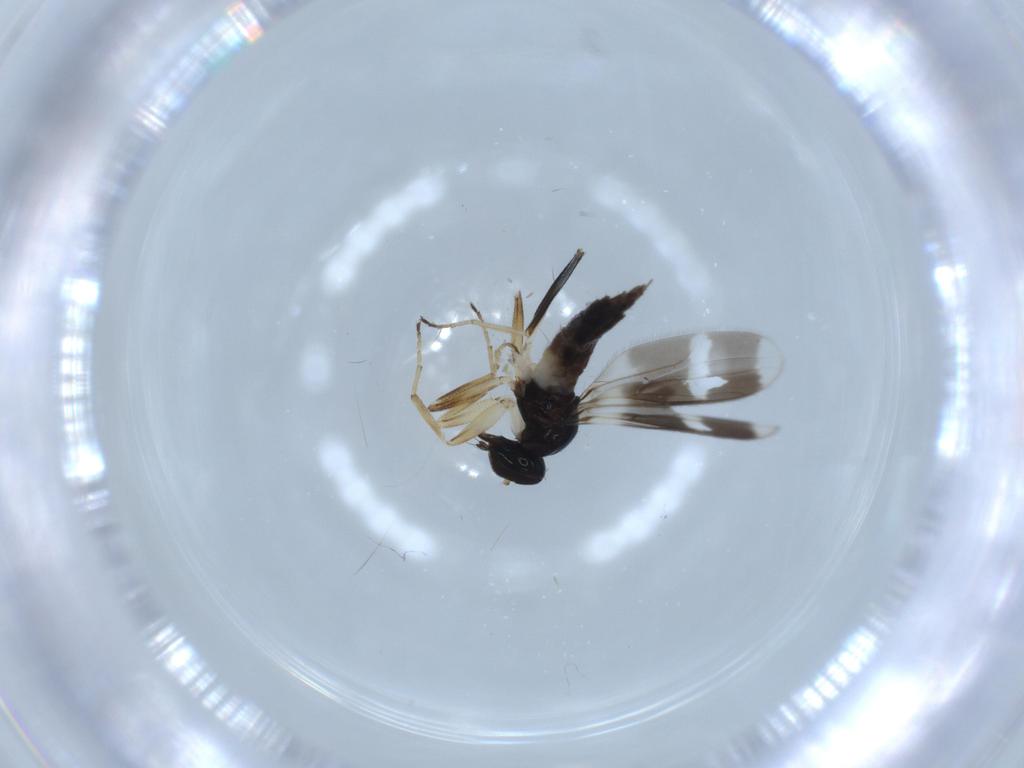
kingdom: Animalia
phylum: Arthropoda
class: Insecta
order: Diptera
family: Hybotidae
